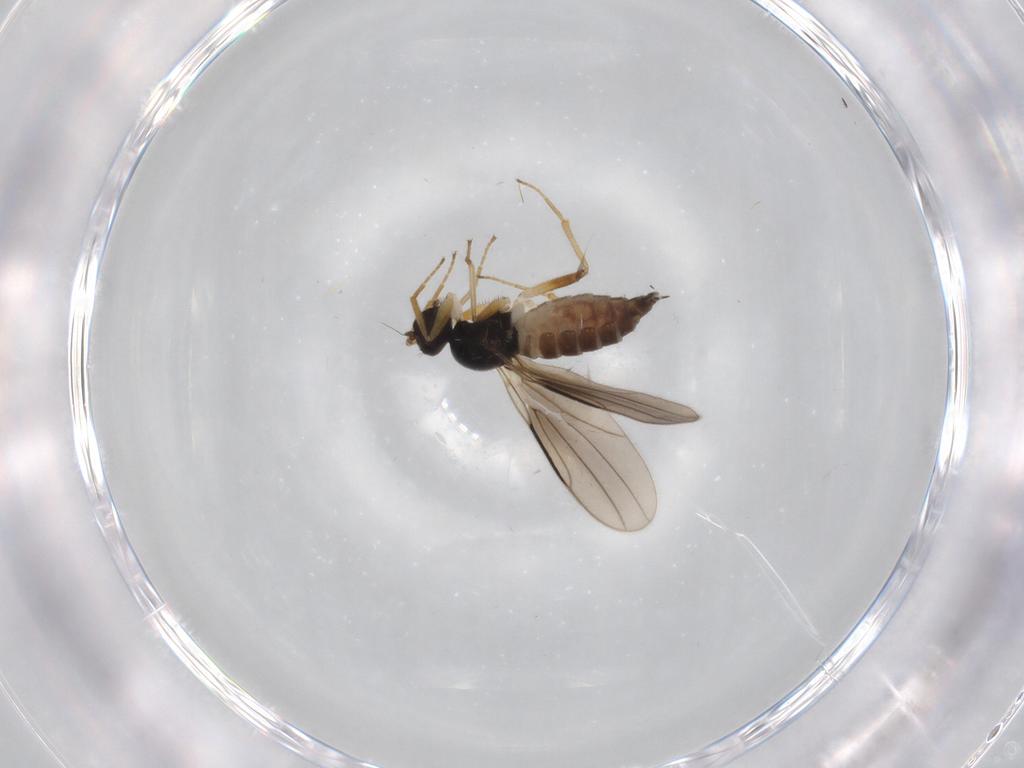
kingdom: Animalia
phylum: Arthropoda
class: Insecta
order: Diptera
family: Hybotidae
